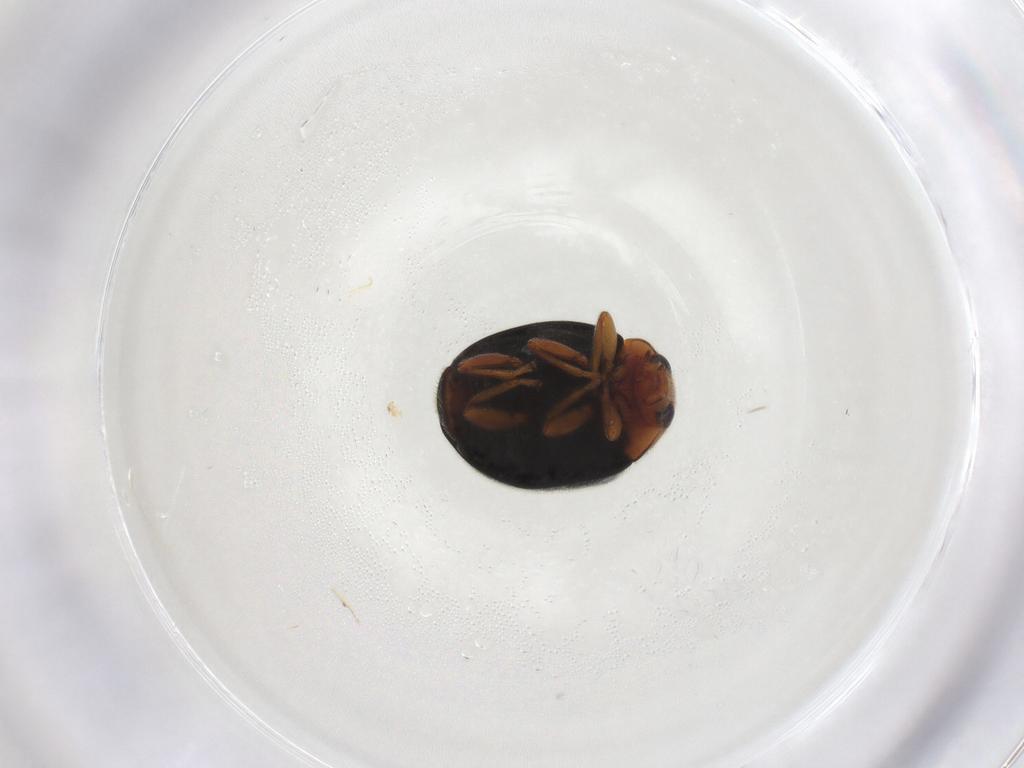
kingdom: Animalia
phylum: Arthropoda
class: Insecta
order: Coleoptera
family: Coccinellidae
